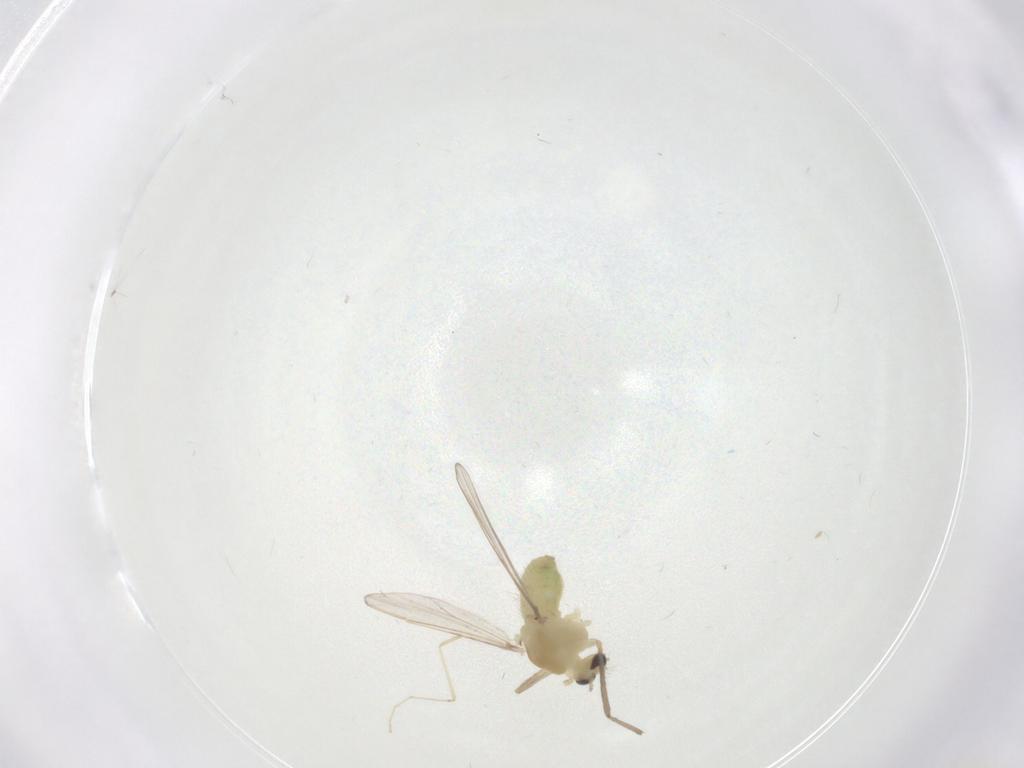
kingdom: Animalia
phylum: Arthropoda
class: Insecta
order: Diptera
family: Chironomidae
